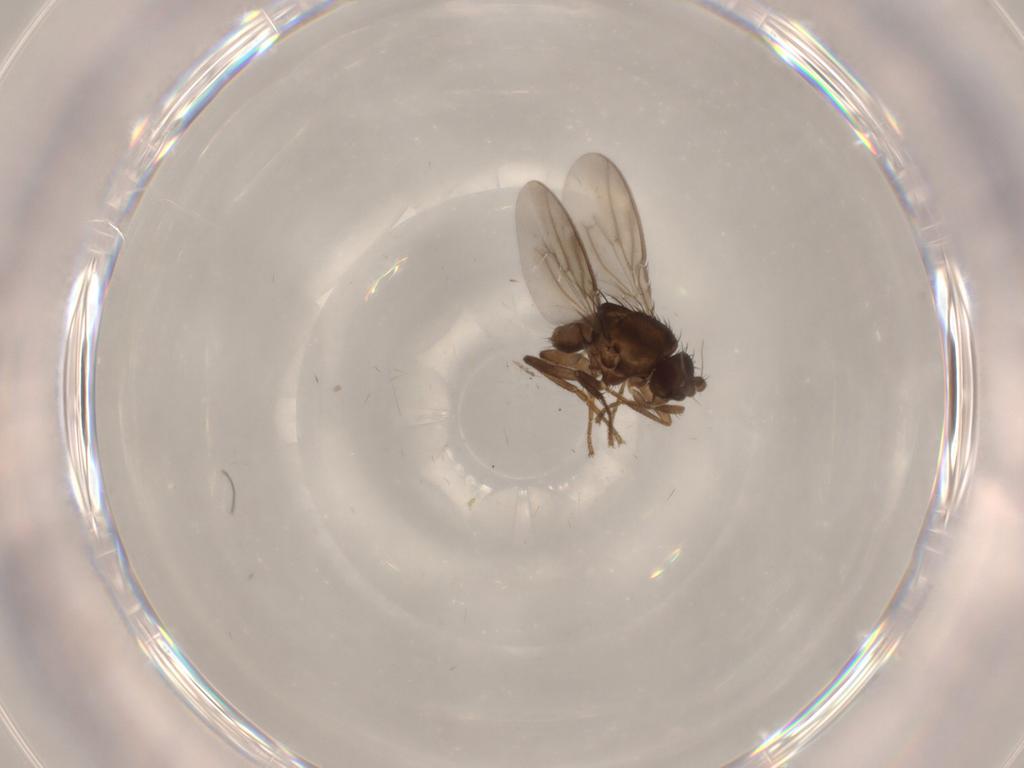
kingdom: Animalia
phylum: Arthropoda
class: Insecta
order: Diptera
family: Sphaeroceridae
